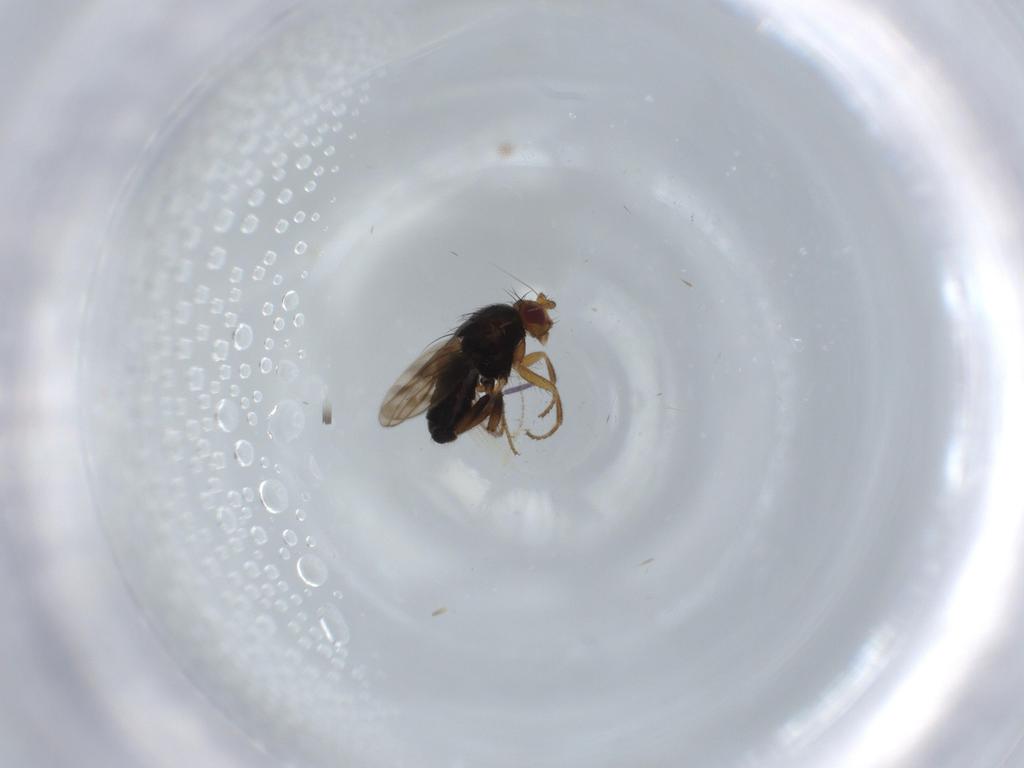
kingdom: Animalia
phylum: Arthropoda
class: Insecta
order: Diptera
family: Sphaeroceridae
